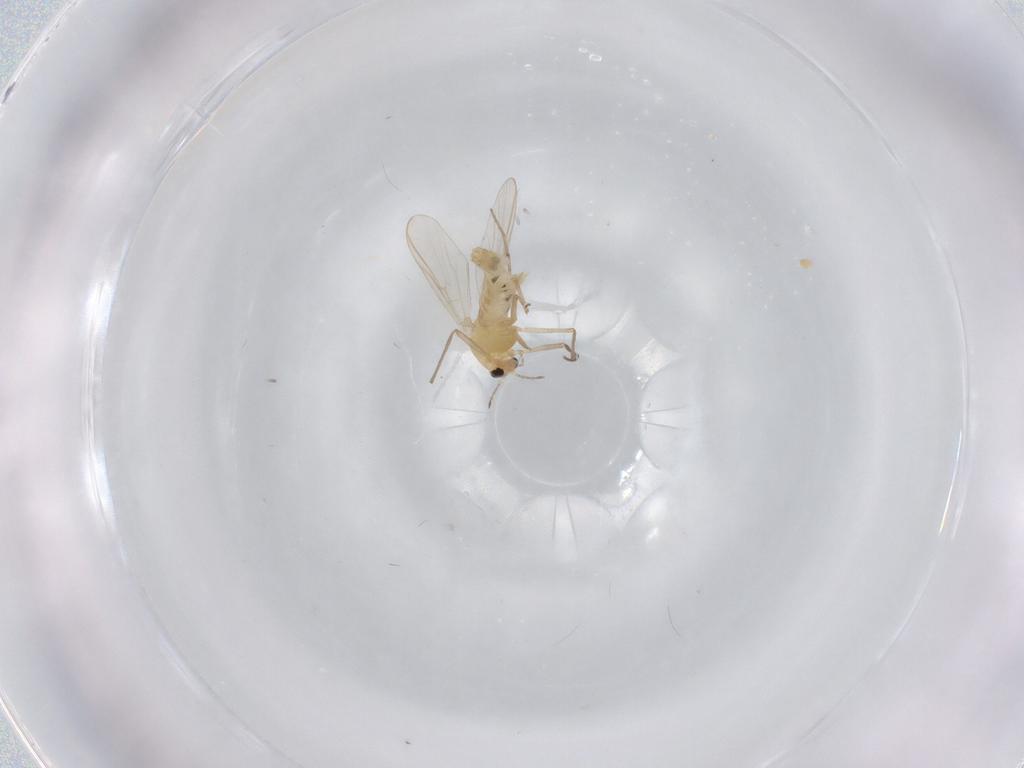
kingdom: Animalia
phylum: Arthropoda
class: Insecta
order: Diptera
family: Chironomidae
